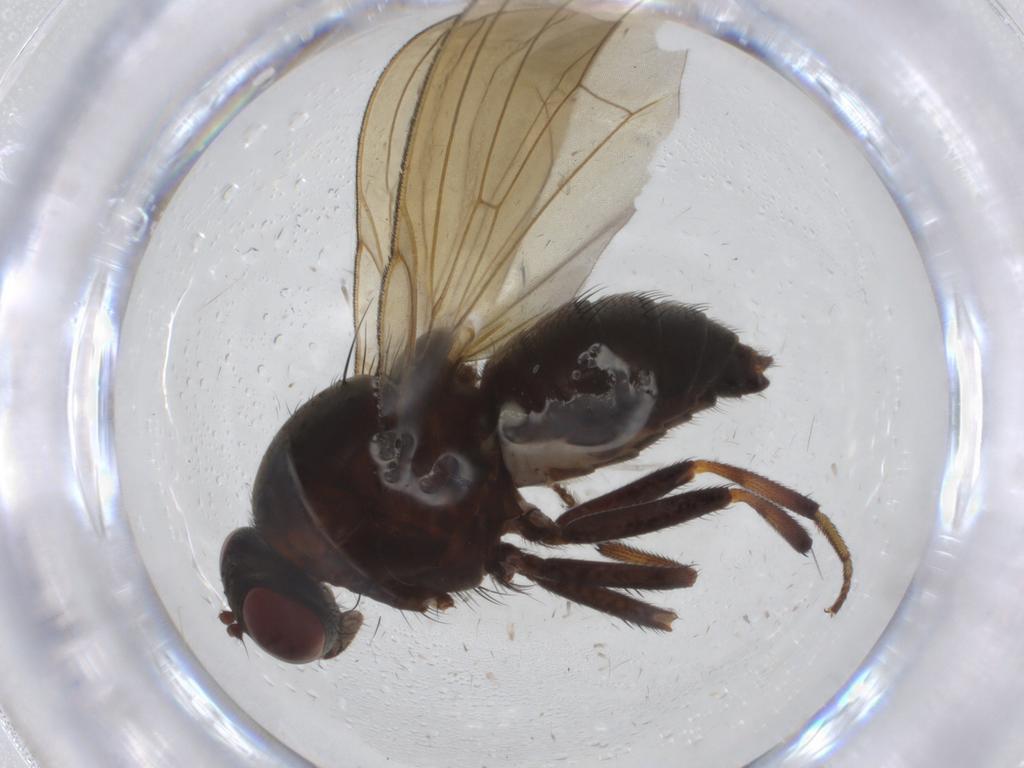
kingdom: Animalia
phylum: Arthropoda
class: Insecta
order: Diptera
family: Psychodidae
